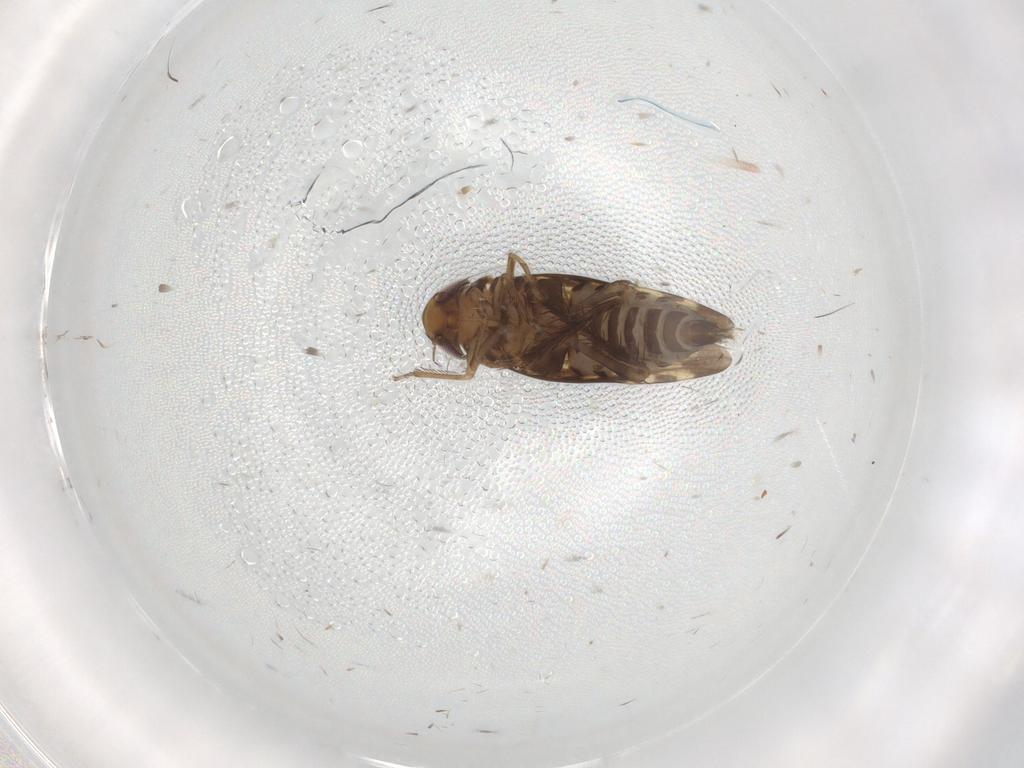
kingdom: Animalia
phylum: Arthropoda
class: Insecta
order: Hemiptera
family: Cicadellidae
